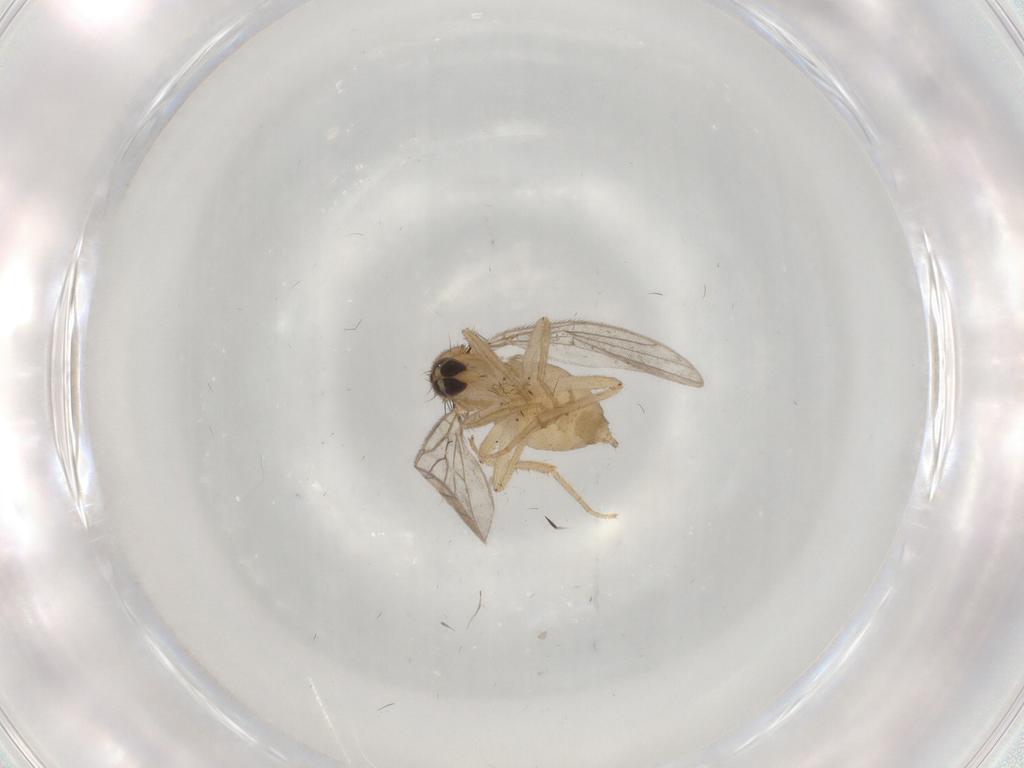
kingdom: Animalia
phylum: Arthropoda
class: Insecta
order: Diptera
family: Hybotidae
